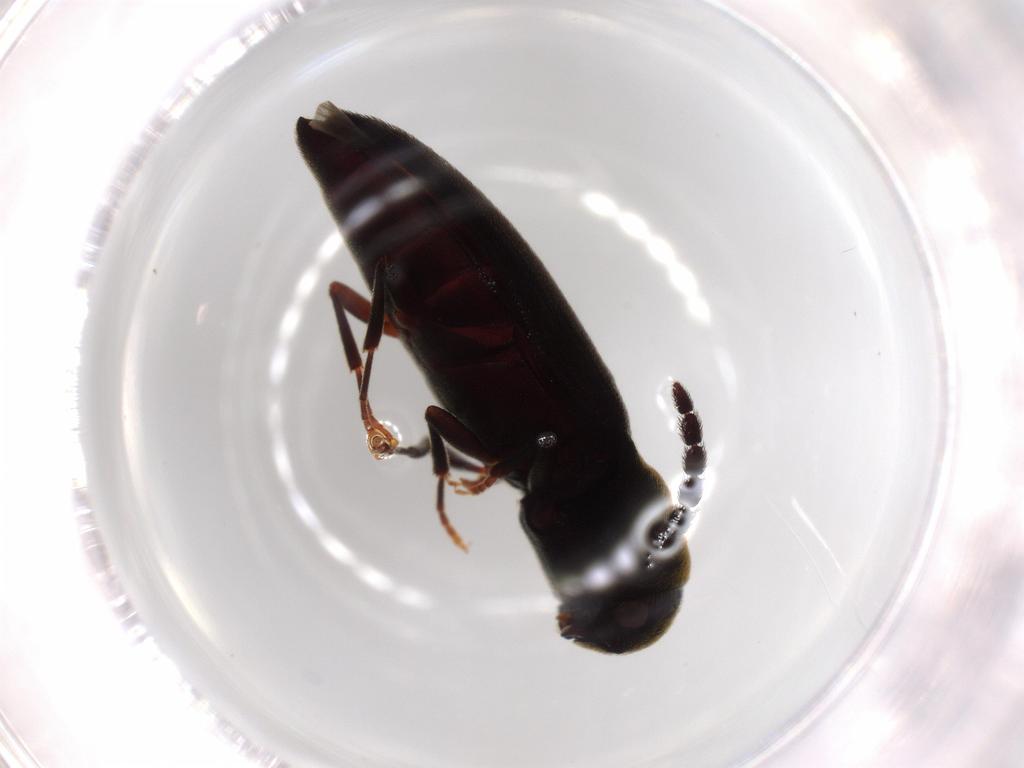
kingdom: Animalia
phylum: Arthropoda
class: Insecta
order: Coleoptera
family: Eucnemidae
